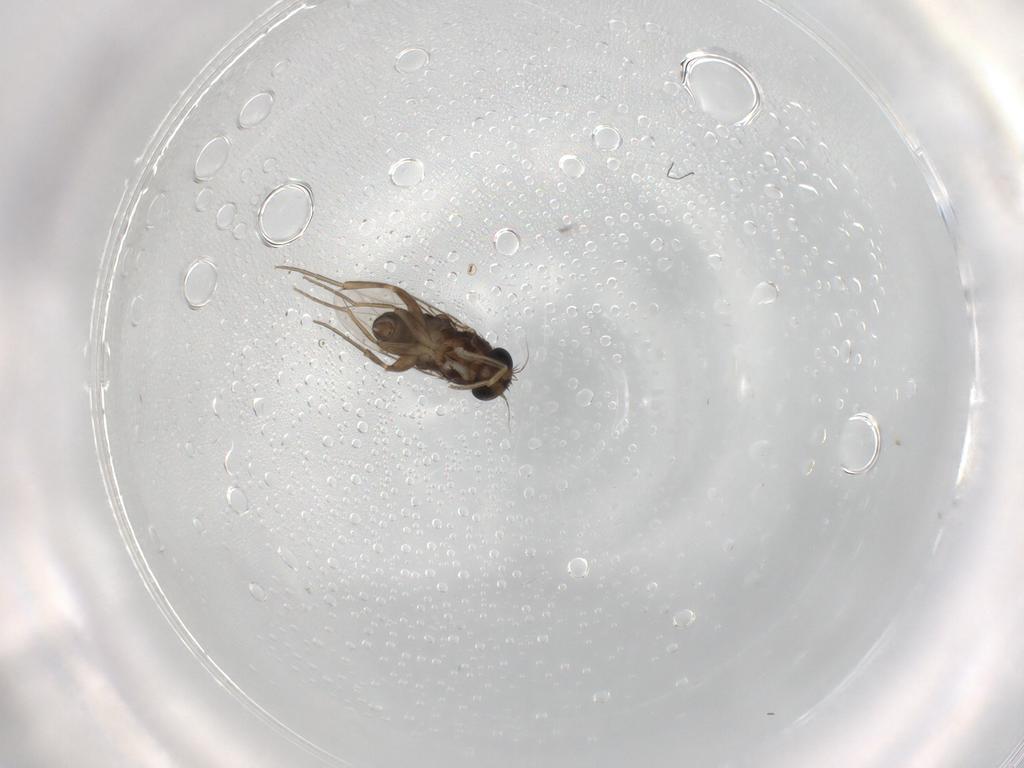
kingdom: Animalia
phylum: Arthropoda
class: Insecta
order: Diptera
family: Phoridae
